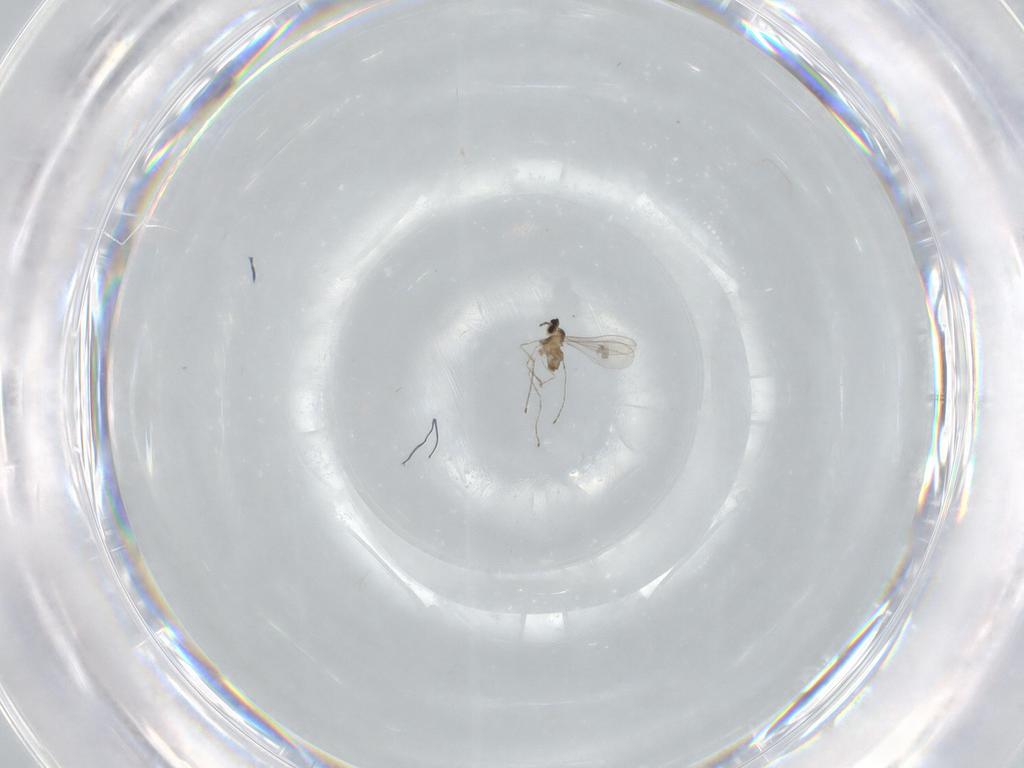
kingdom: Animalia
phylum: Arthropoda
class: Insecta
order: Diptera
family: Cecidomyiidae
